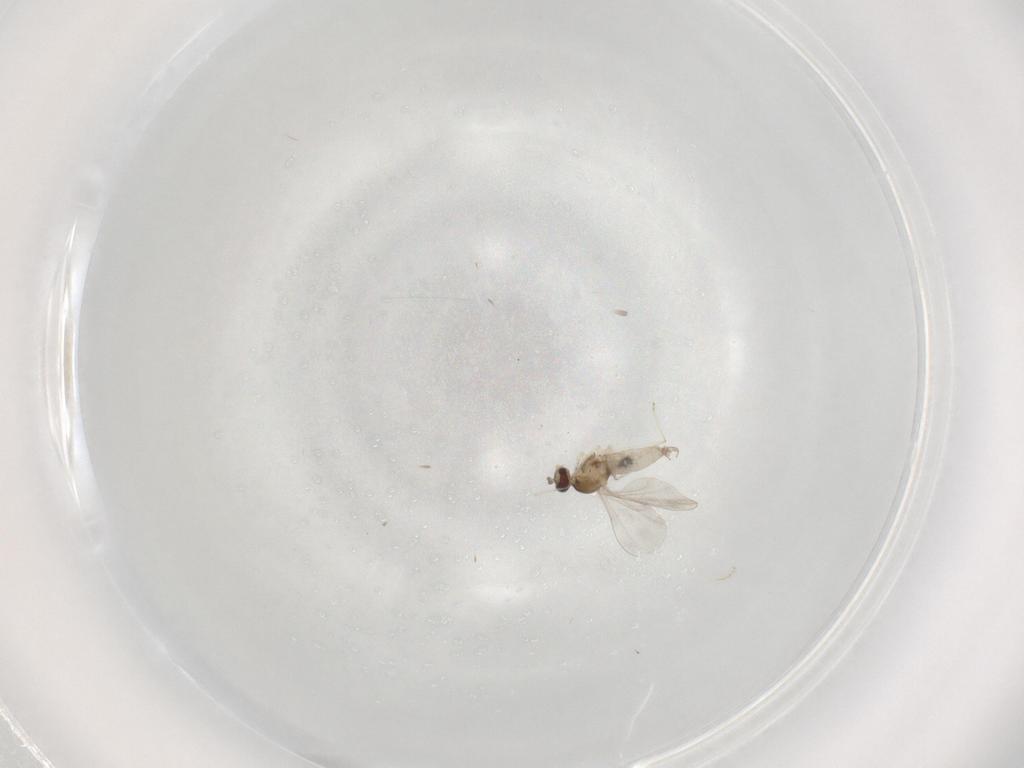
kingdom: Animalia
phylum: Arthropoda
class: Insecta
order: Diptera
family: Cecidomyiidae
